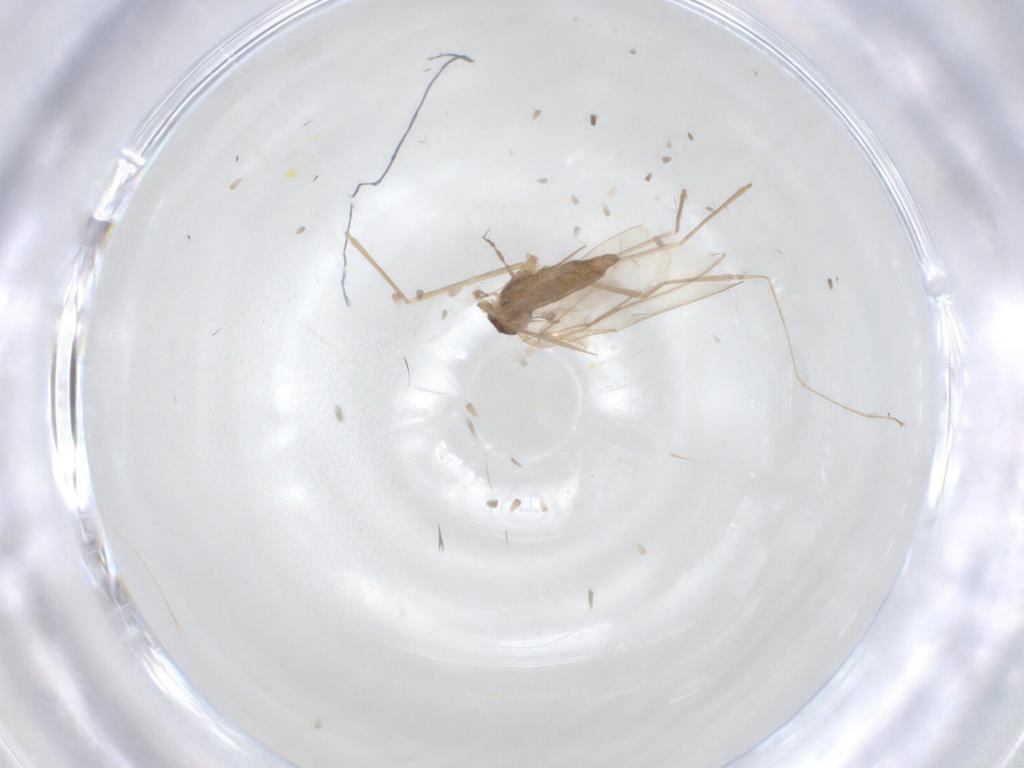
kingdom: Animalia
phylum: Arthropoda
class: Insecta
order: Diptera
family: Cecidomyiidae
